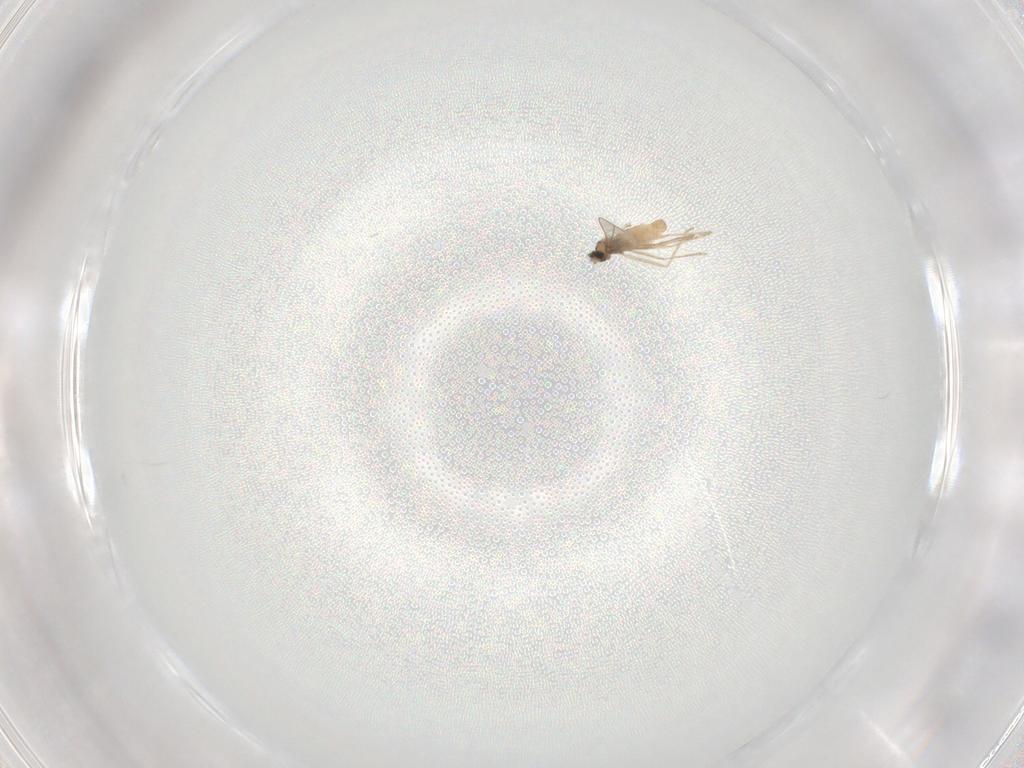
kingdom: Animalia
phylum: Arthropoda
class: Insecta
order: Diptera
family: Cecidomyiidae
